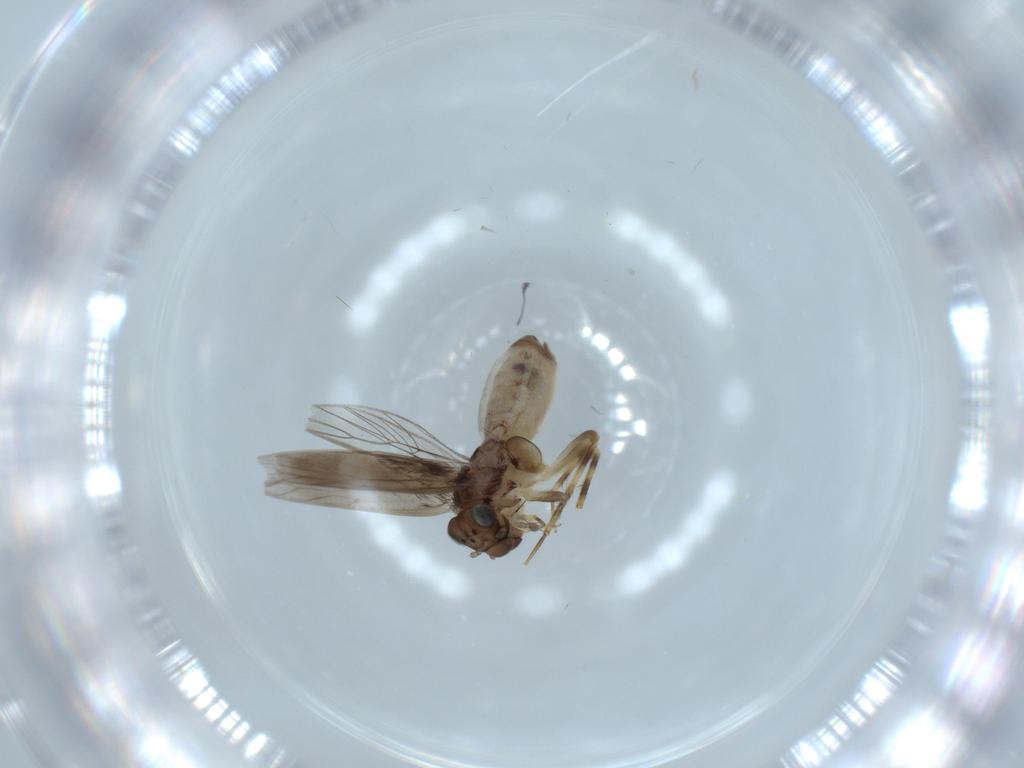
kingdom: Animalia
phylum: Arthropoda
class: Insecta
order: Psocodea
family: Lepidopsocidae
